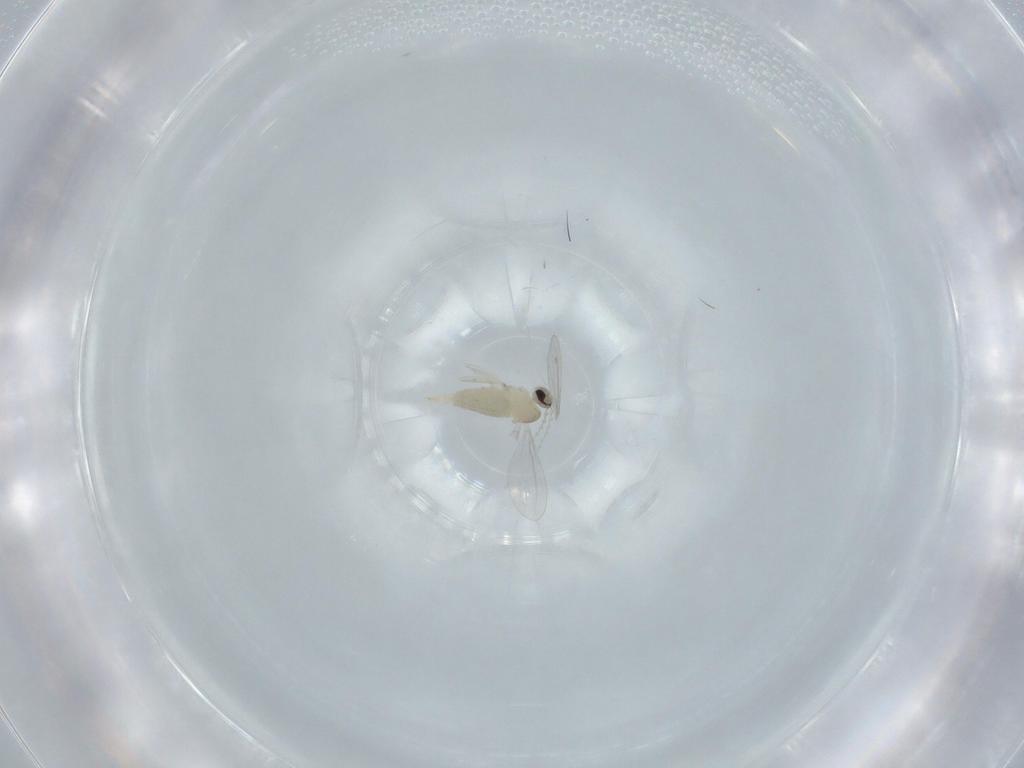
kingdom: Animalia
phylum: Arthropoda
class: Insecta
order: Diptera
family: Cecidomyiidae
